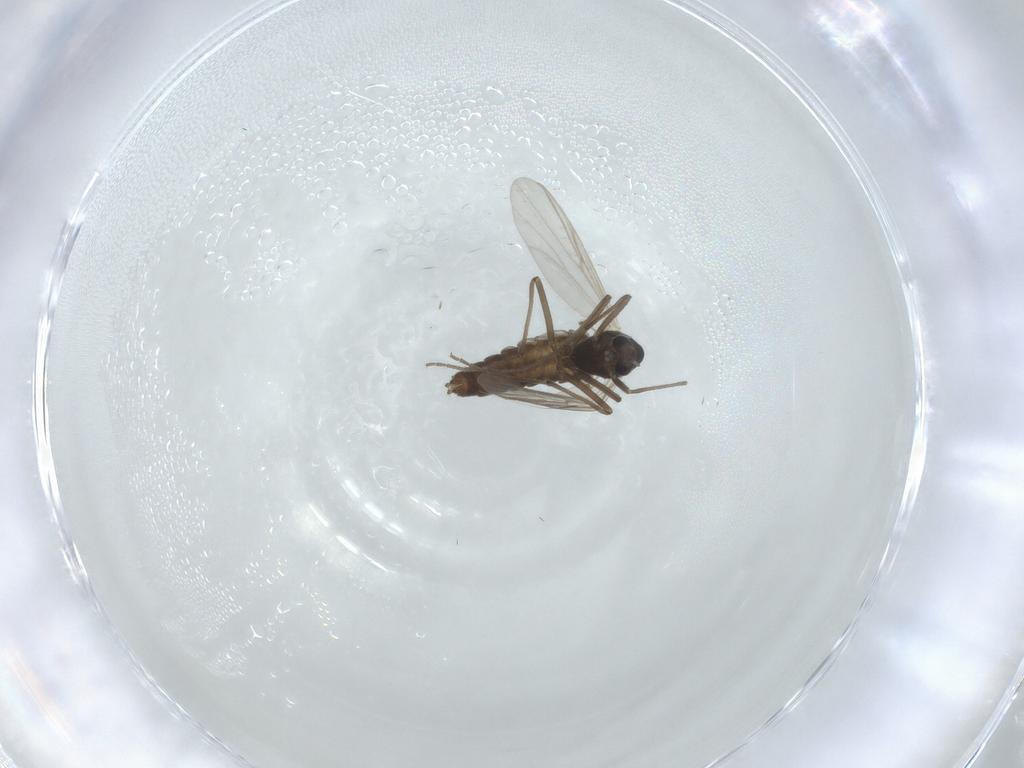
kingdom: Animalia
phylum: Arthropoda
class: Insecta
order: Diptera
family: Chironomidae
